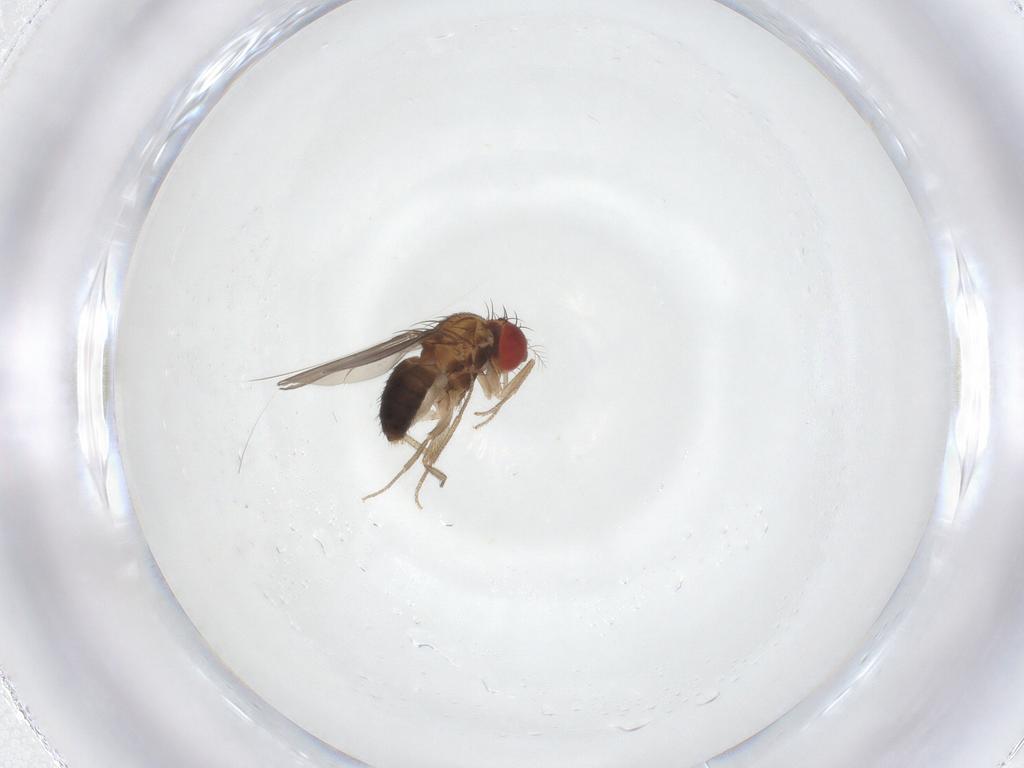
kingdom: Animalia
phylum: Arthropoda
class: Insecta
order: Diptera
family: Drosophilidae
